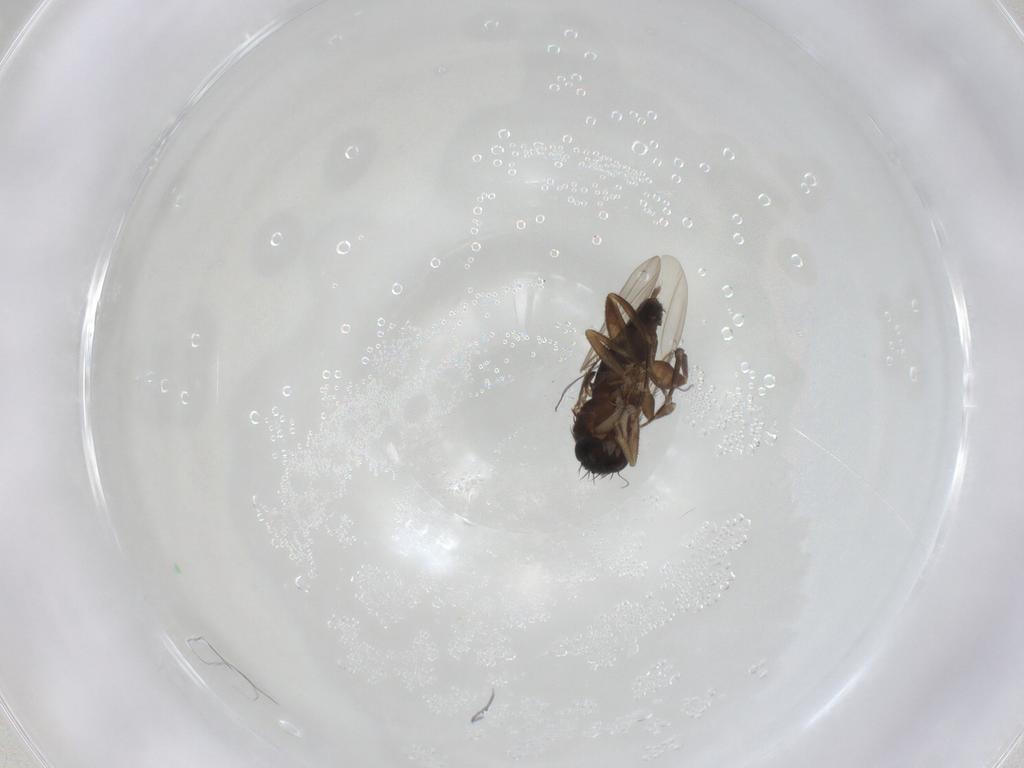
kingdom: Animalia
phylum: Arthropoda
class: Insecta
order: Diptera
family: Phoridae
